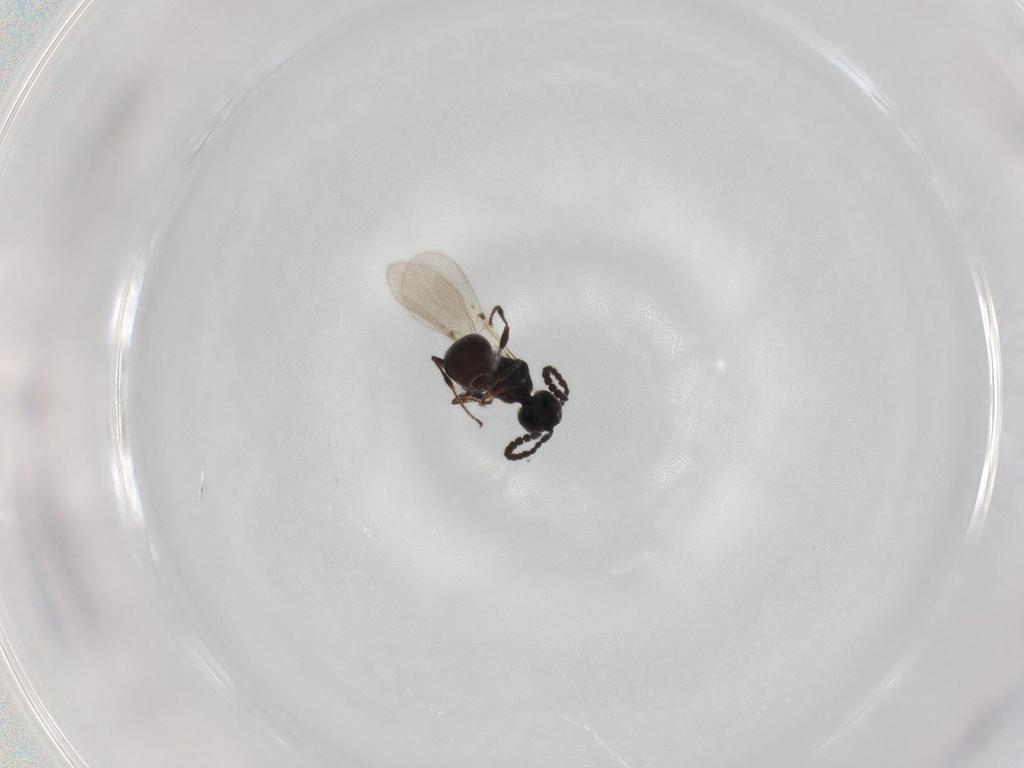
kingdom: Animalia
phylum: Arthropoda
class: Insecta
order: Hymenoptera
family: Diapriidae
